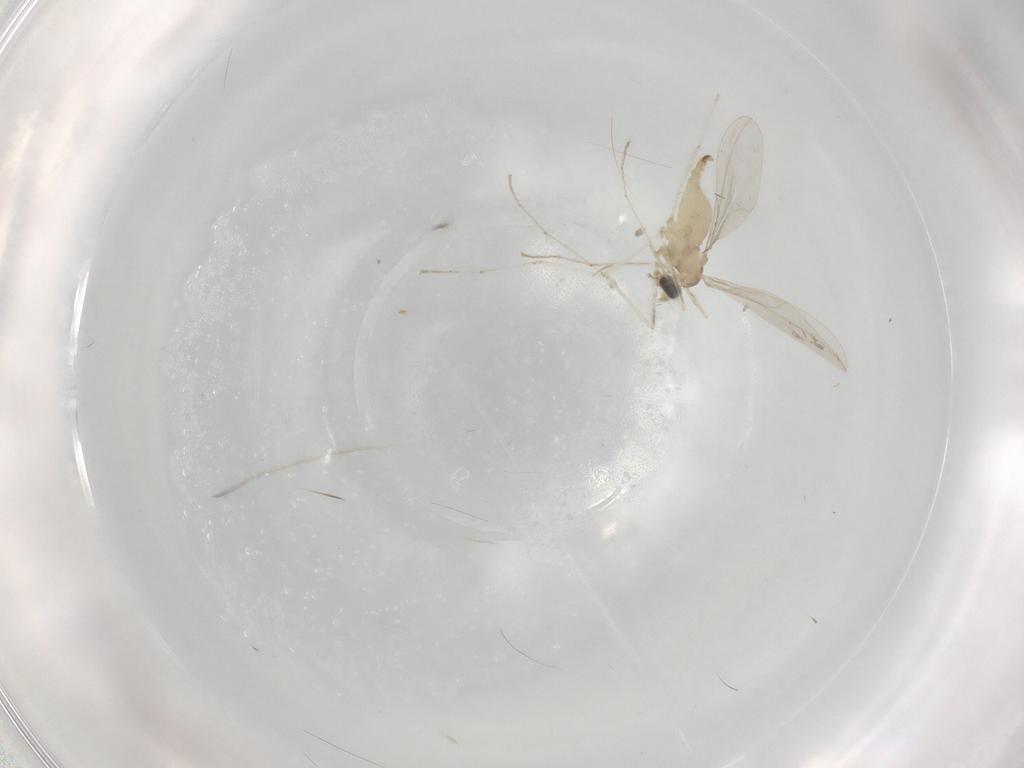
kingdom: Animalia
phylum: Arthropoda
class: Insecta
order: Diptera
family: Cecidomyiidae
